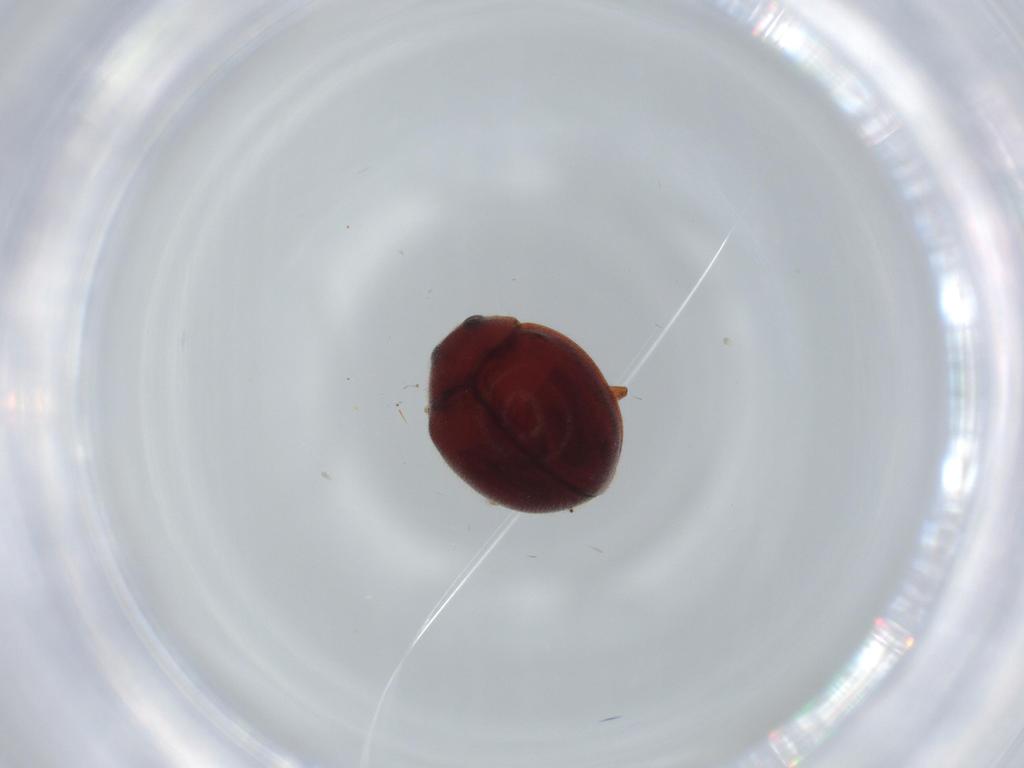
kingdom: Animalia
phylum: Arthropoda
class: Insecta
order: Coleoptera
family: Coccinellidae
